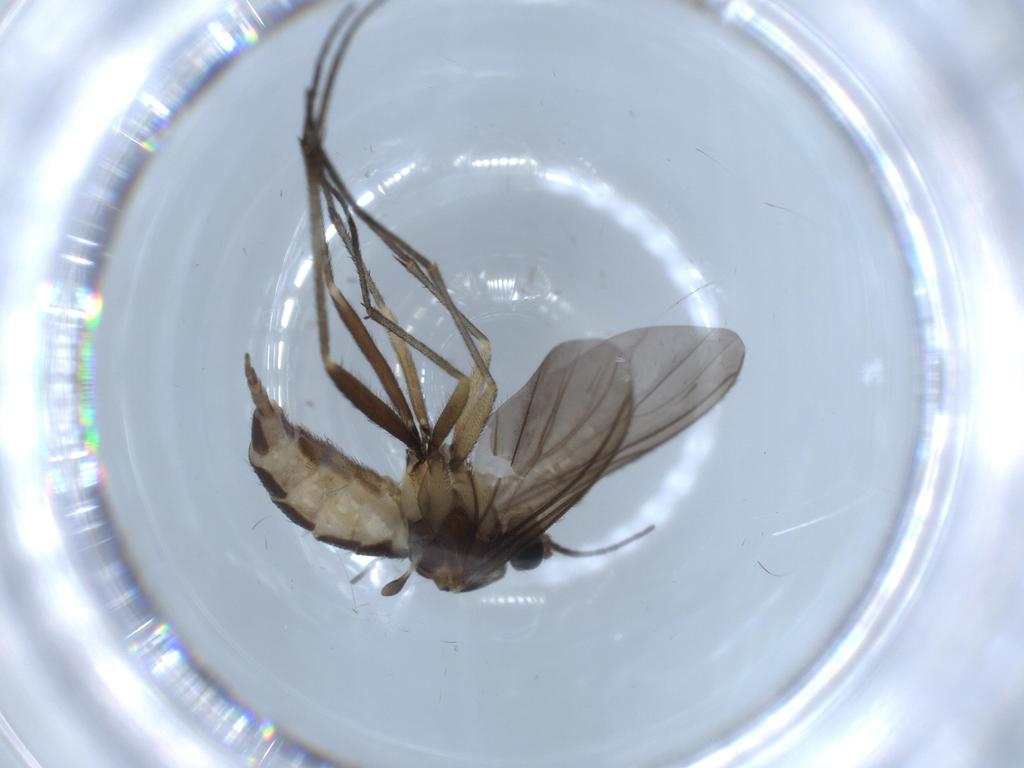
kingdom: Animalia
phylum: Arthropoda
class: Insecta
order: Diptera
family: Sciaridae
